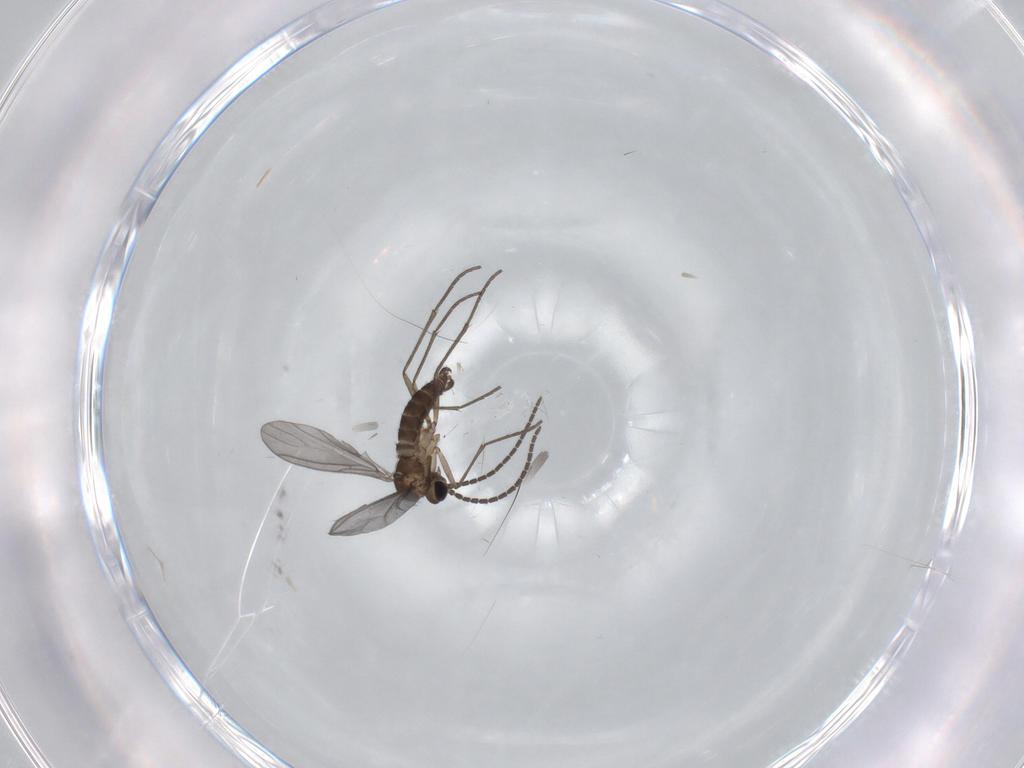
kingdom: Animalia
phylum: Arthropoda
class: Insecta
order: Diptera
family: Sciaridae
